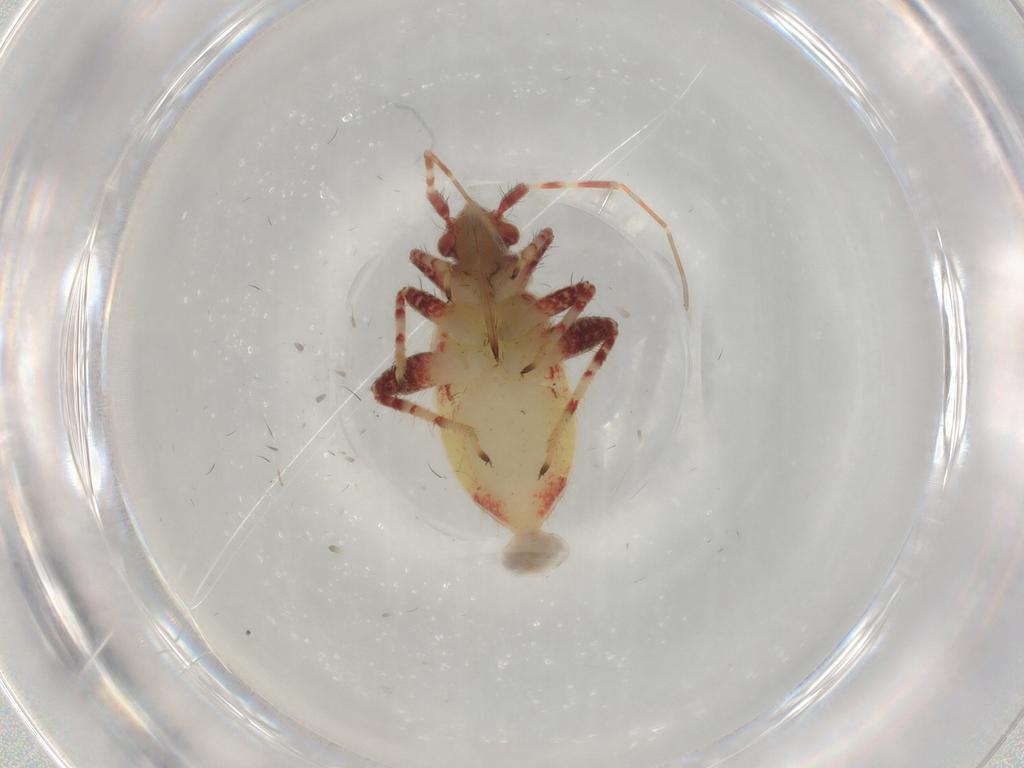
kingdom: Animalia
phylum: Arthropoda
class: Insecta
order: Hemiptera
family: Miridae
